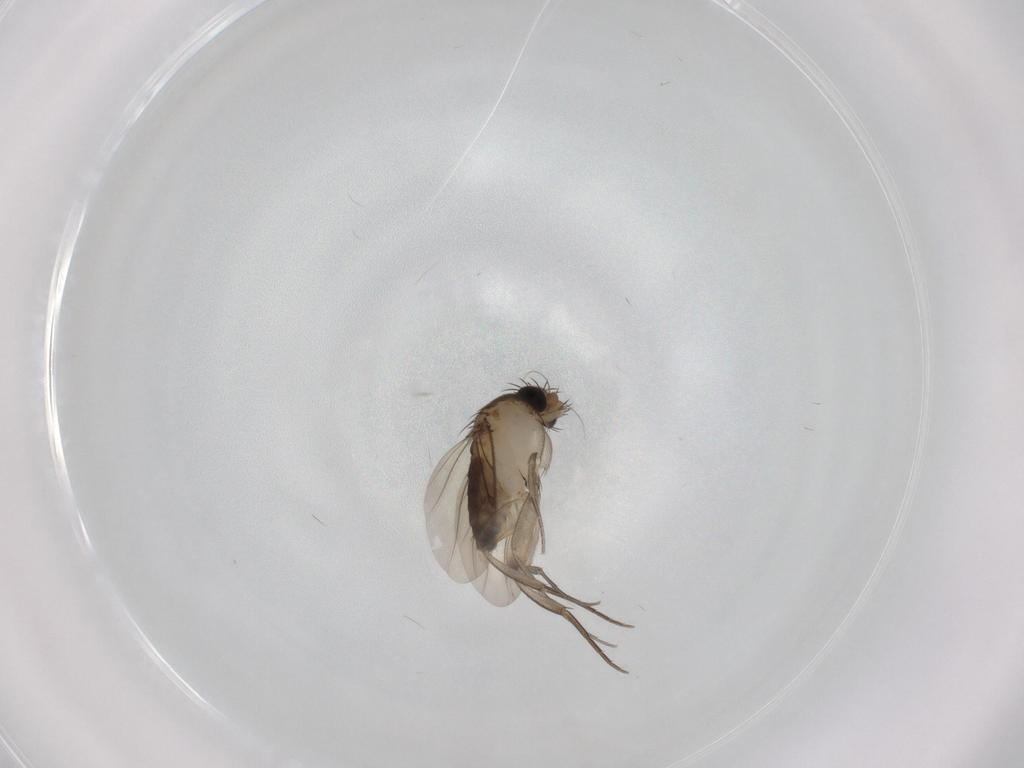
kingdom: Animalia
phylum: Arthropoda
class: Insecta
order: Diptera
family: Phoridae
